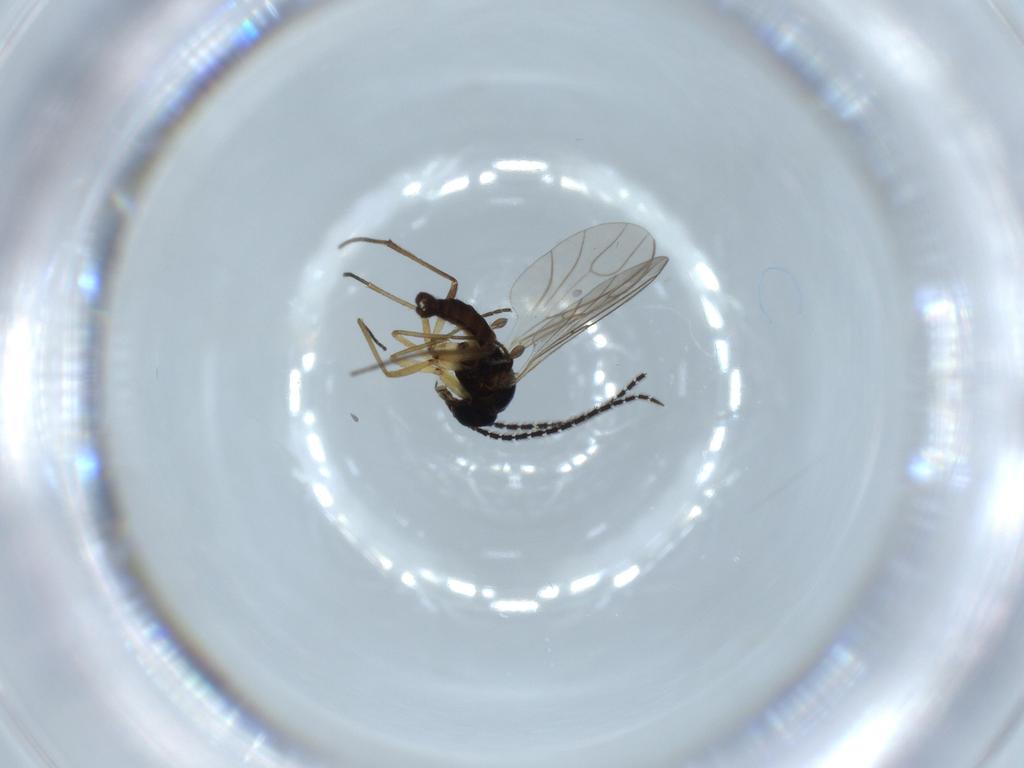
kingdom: Animalia
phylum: Arthropoda
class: Insecta
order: Diptera
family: Sciaridae
